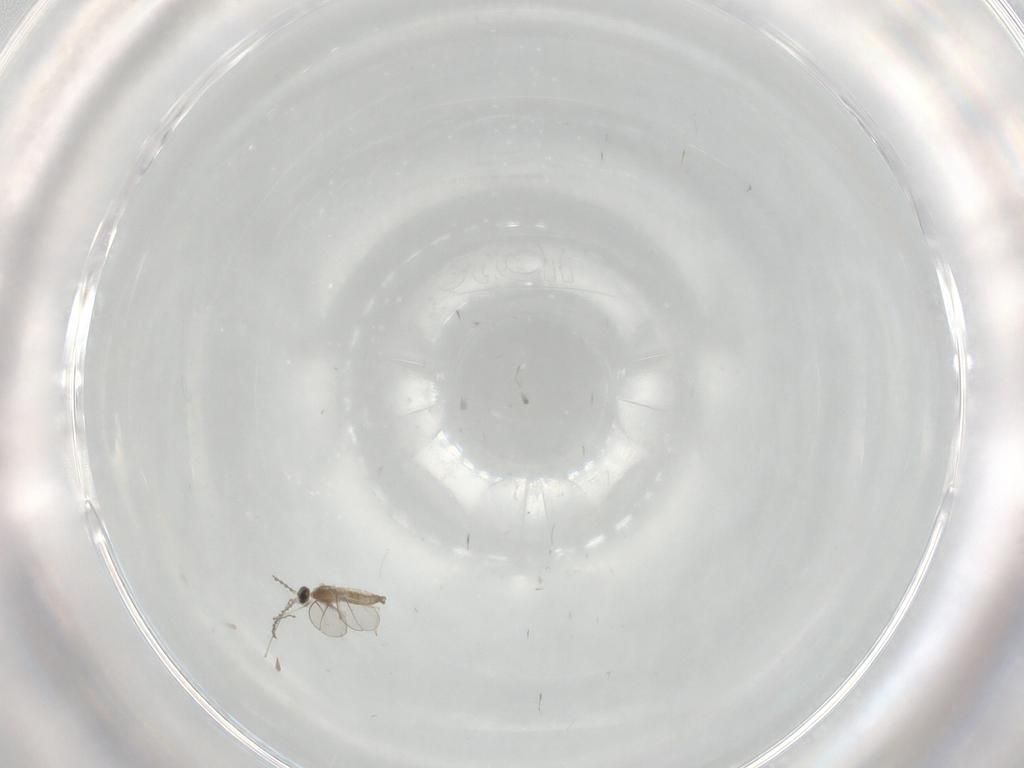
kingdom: Animalia
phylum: Arthropoda
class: Insecta
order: Diptera
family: Cecidomyiidae
